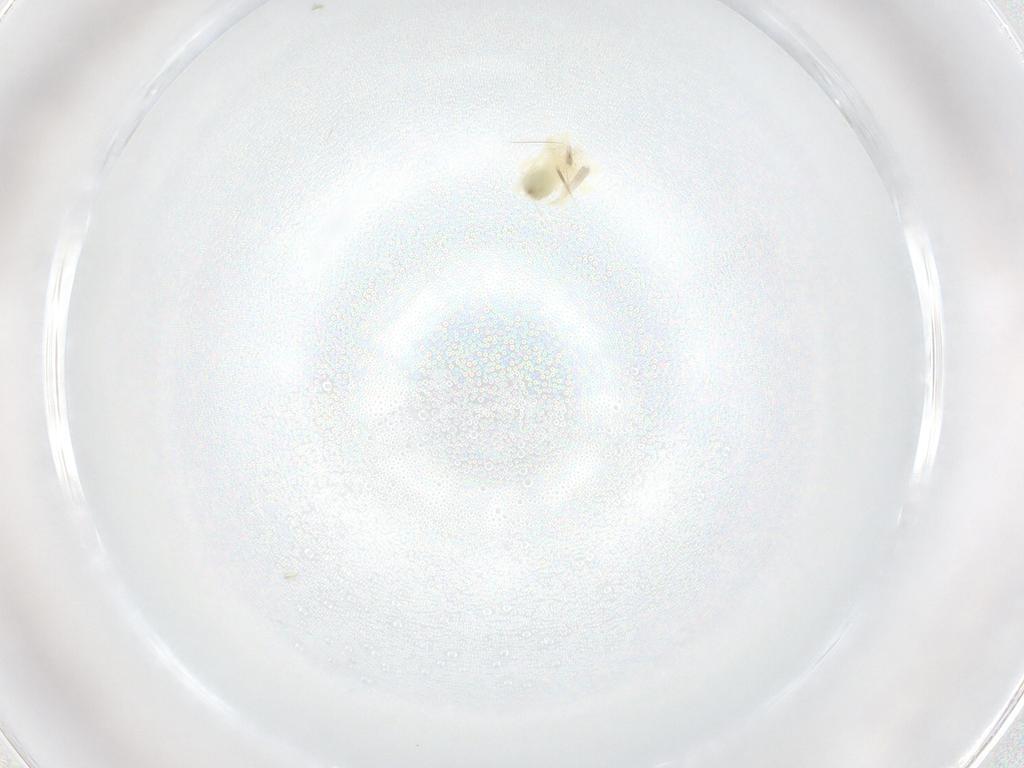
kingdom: Animalia
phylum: Arthropoda
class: Arachnida
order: Trombidiformes
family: Anystidae
